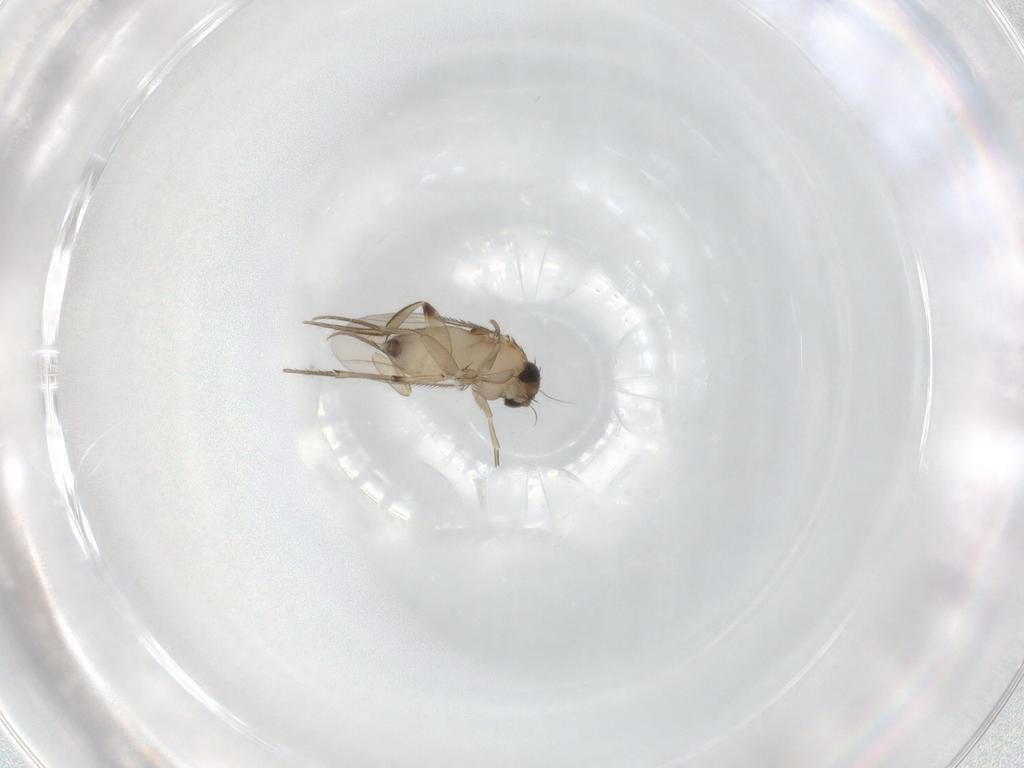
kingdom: Animalia
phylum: Arthropoda
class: Insecta
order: Diptera
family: Phoridae
